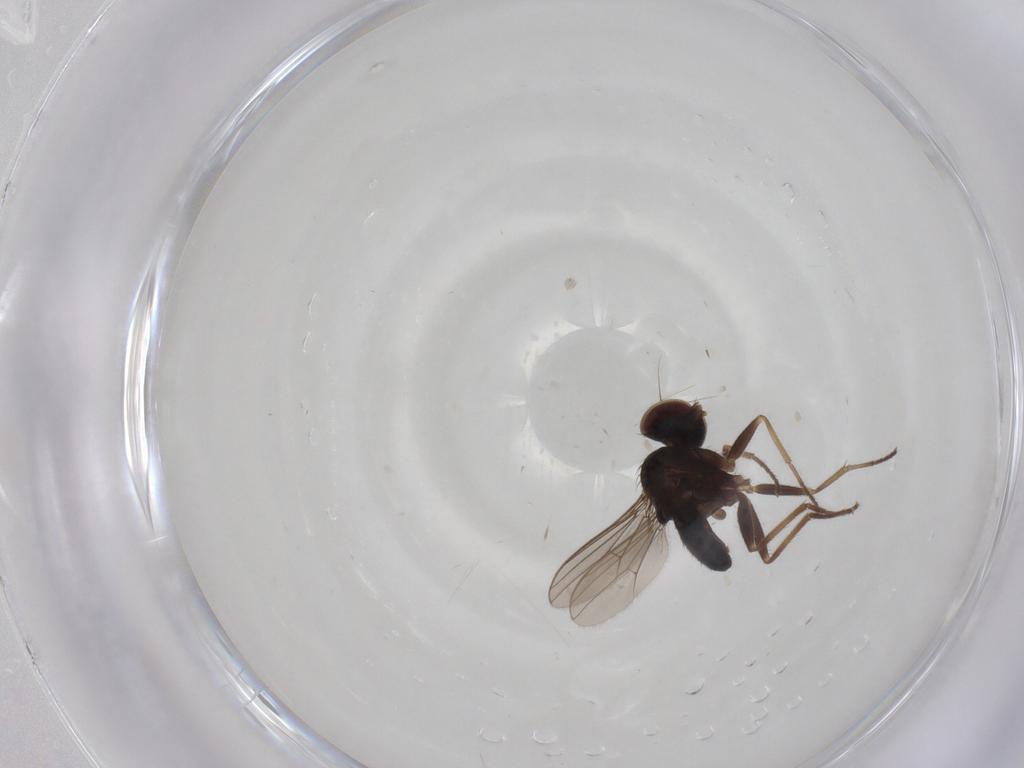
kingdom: Animalia
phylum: Arthropoda
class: Insecta
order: Diptera
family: Dolichopodidae
